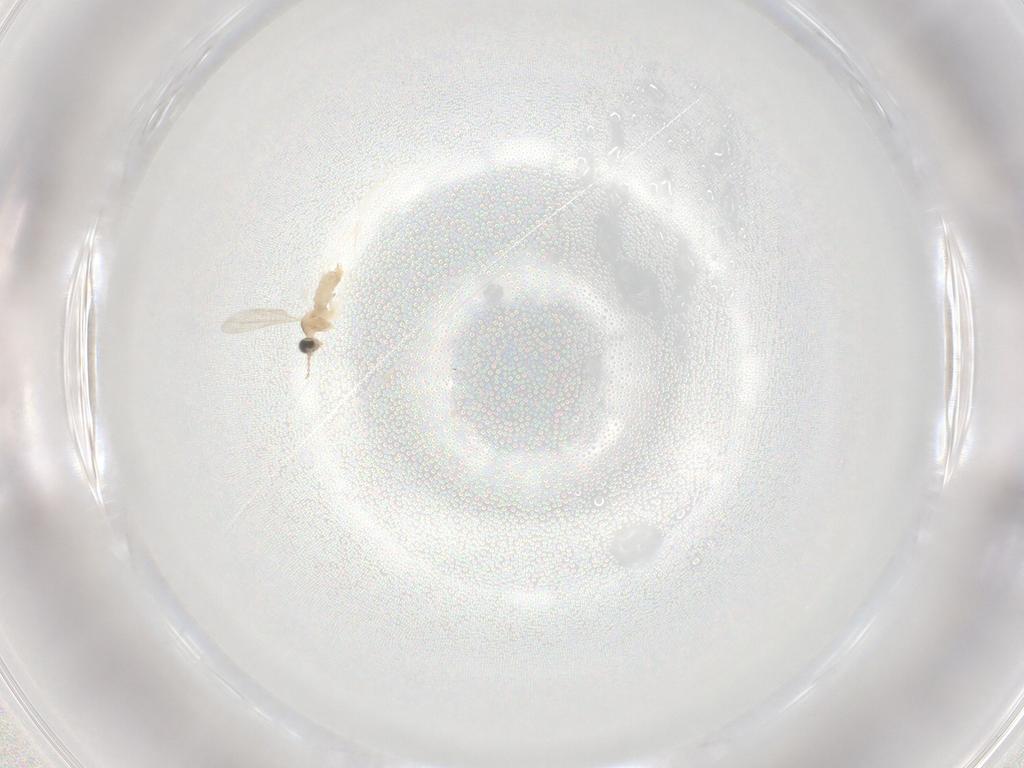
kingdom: Animalia
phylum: Arthropoda
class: Insecta
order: Diptera
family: Cecidomyiidae
